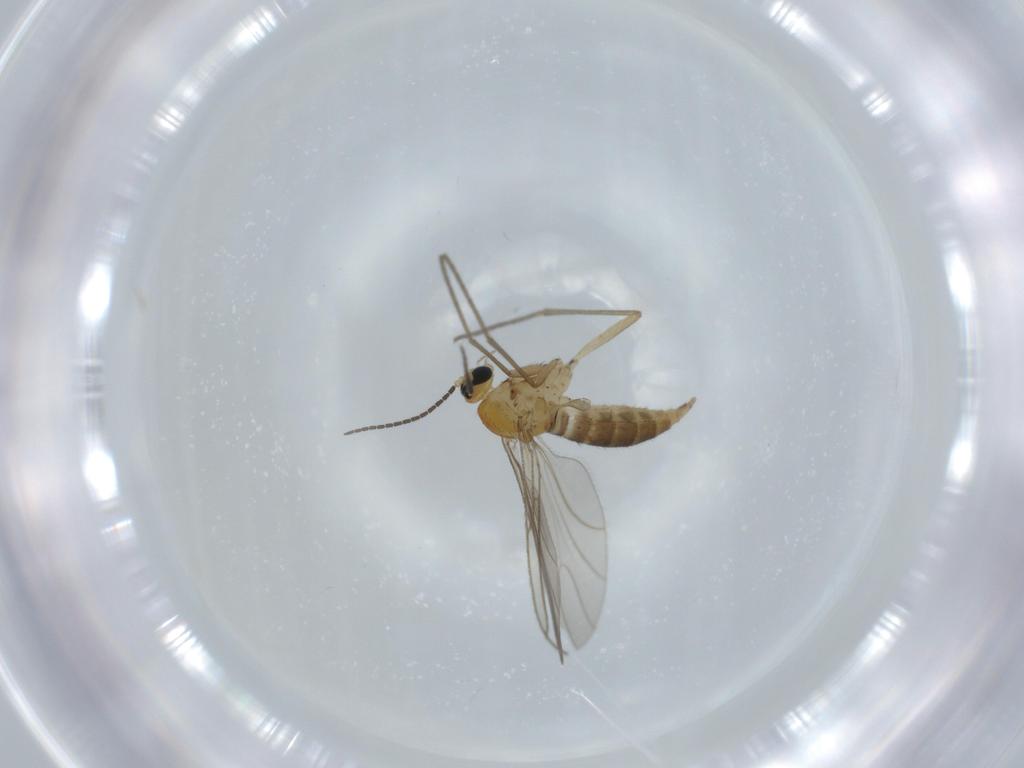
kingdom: Animalia
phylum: Arthropoda
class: Insecta
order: Diptera
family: Sciaridae
